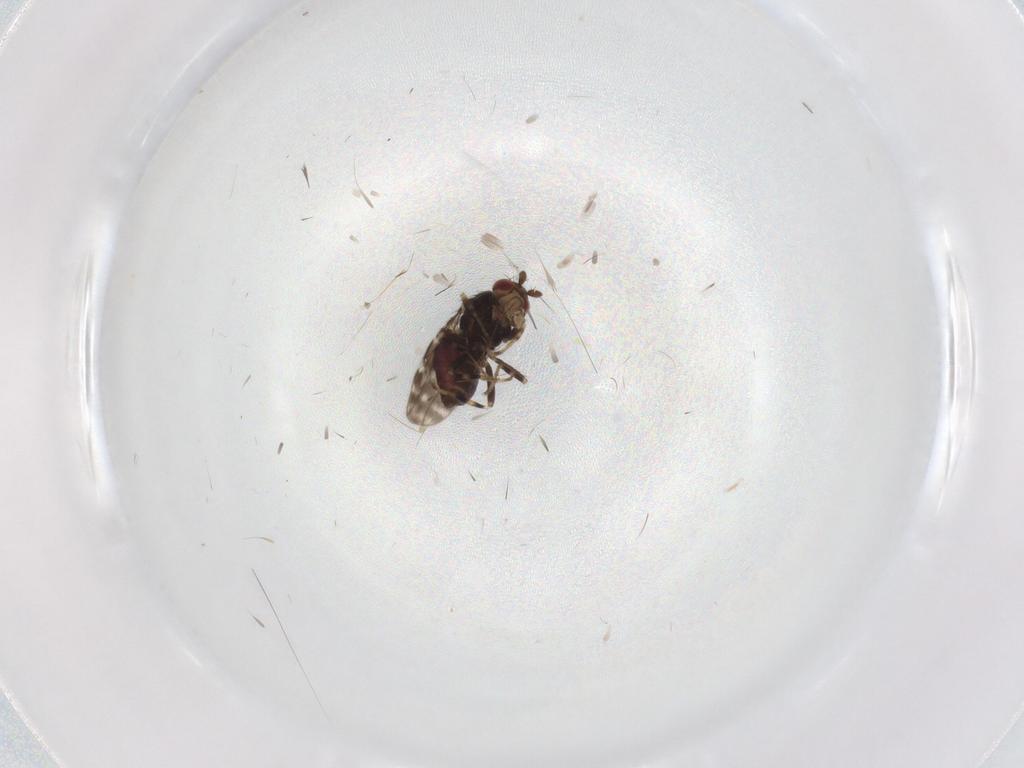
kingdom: Animalia
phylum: Arthropoda
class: Insecta
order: Diptera
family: Sphaeroceridae
